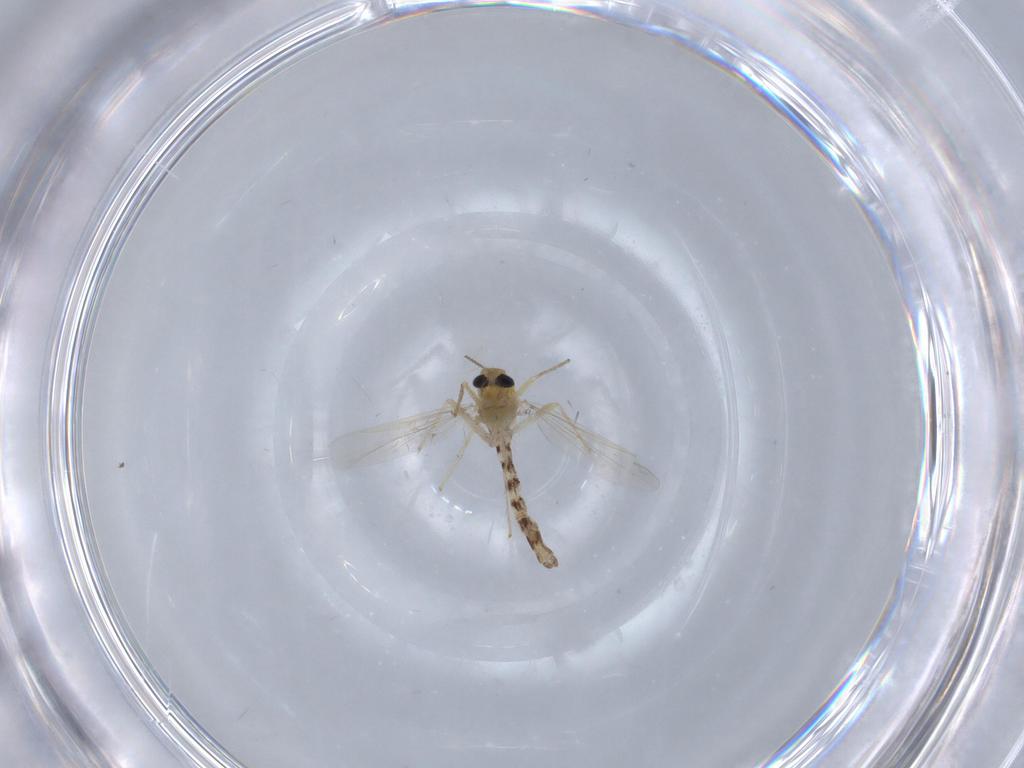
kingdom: Animalia
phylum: Arthropoda
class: Insecta
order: Diptera
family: Chironomidae
